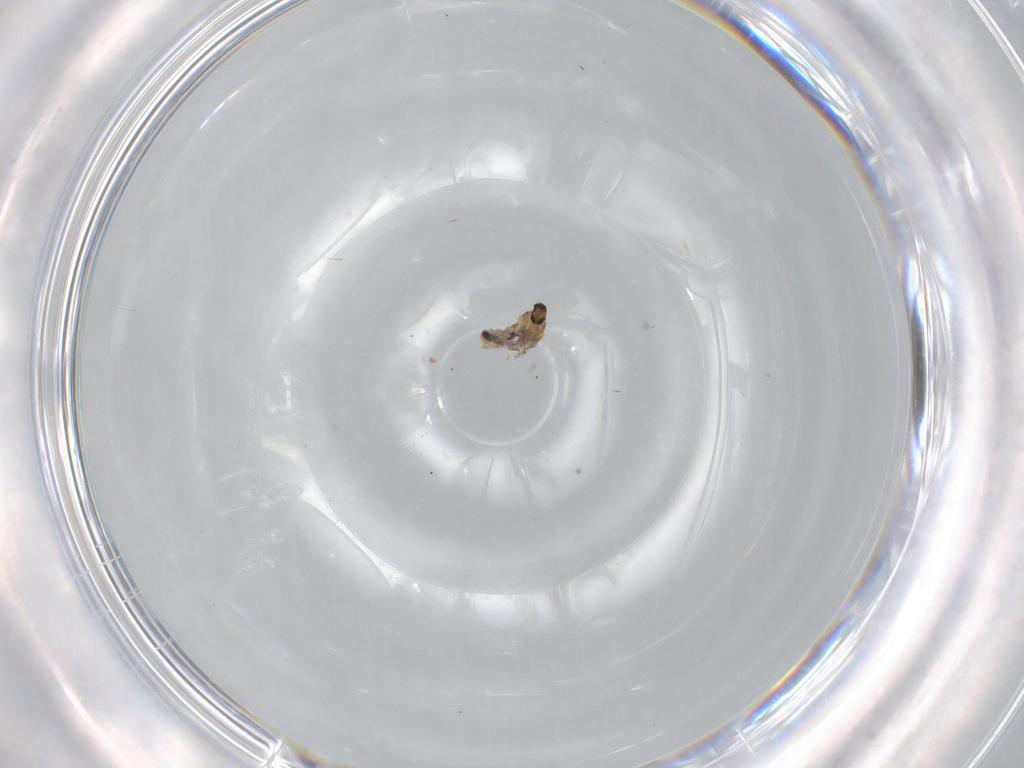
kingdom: Animalia
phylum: Arthropoda
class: Insecta
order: Diptera
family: Cecidomyiidae
